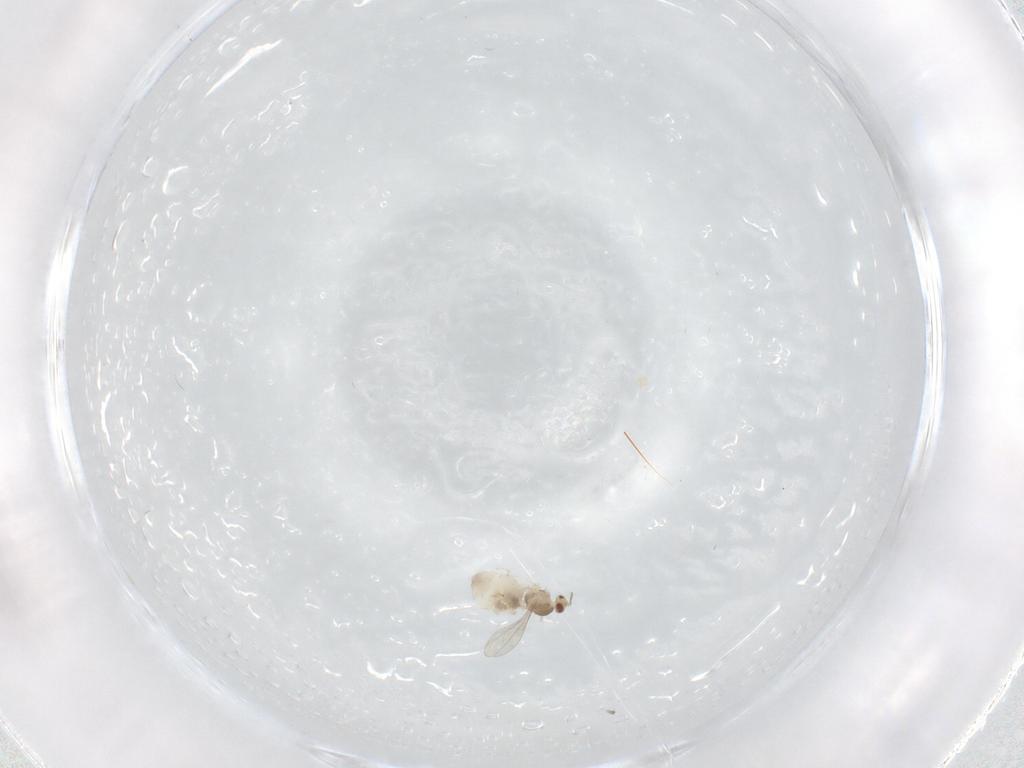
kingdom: Animalia
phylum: Arthropoda
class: Insecta
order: Diptera
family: Cecidomyiidae
